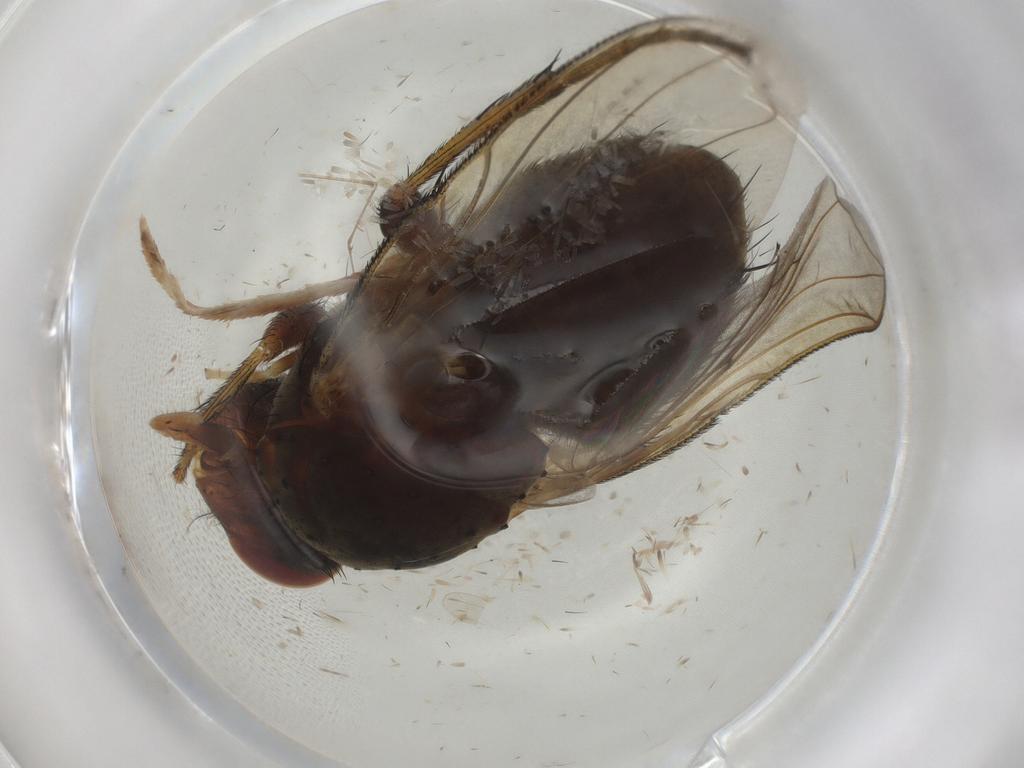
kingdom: Animalia
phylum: Arthropoda
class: Insecta
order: Diptera
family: Tachinidae
